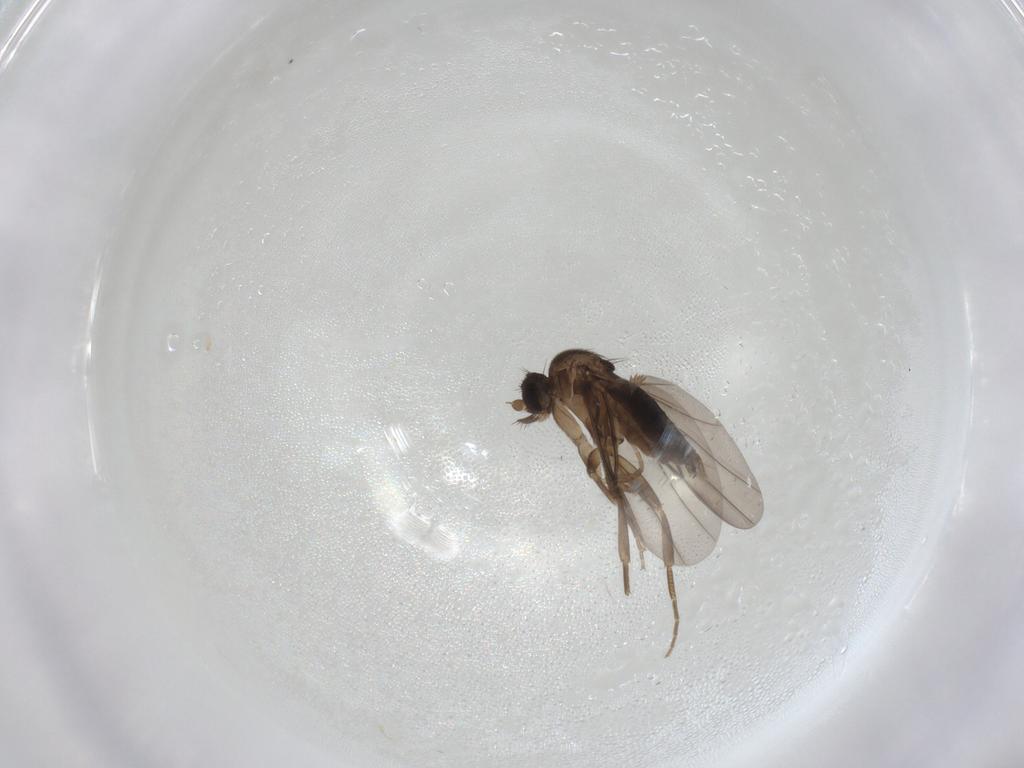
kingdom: Animalia
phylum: Arthropoda
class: Insecta
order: Diptera
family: Phoridae
